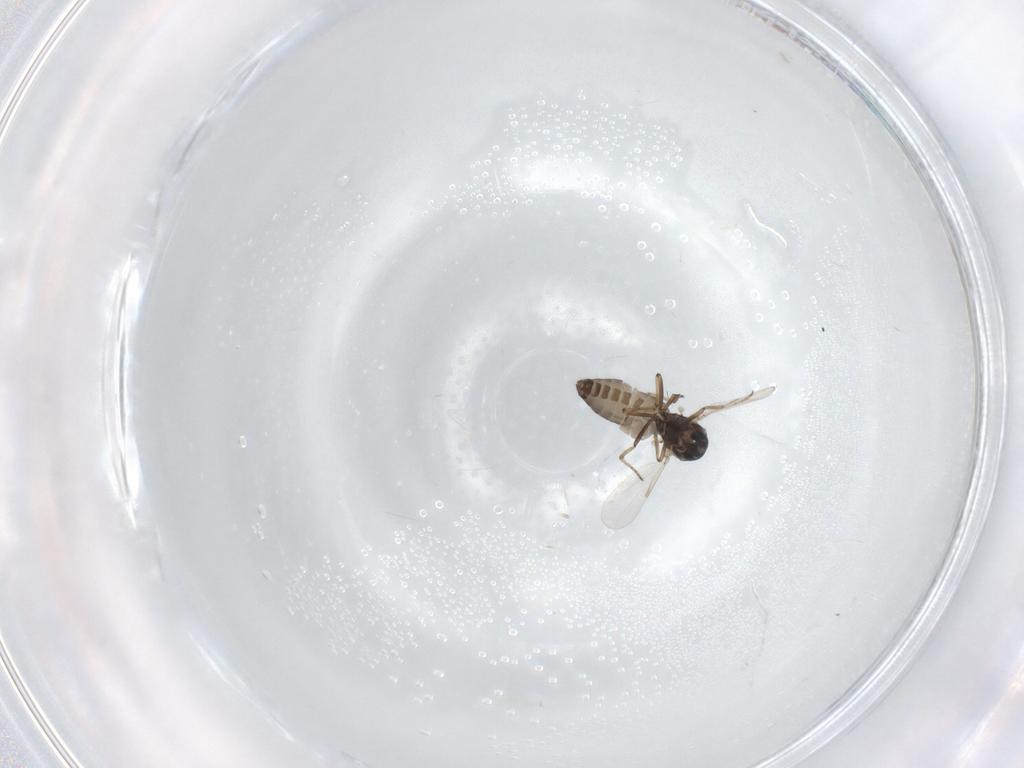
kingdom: Animalia
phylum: Arthropoda
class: Insecta
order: Diptera
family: Ceratopogonidae
